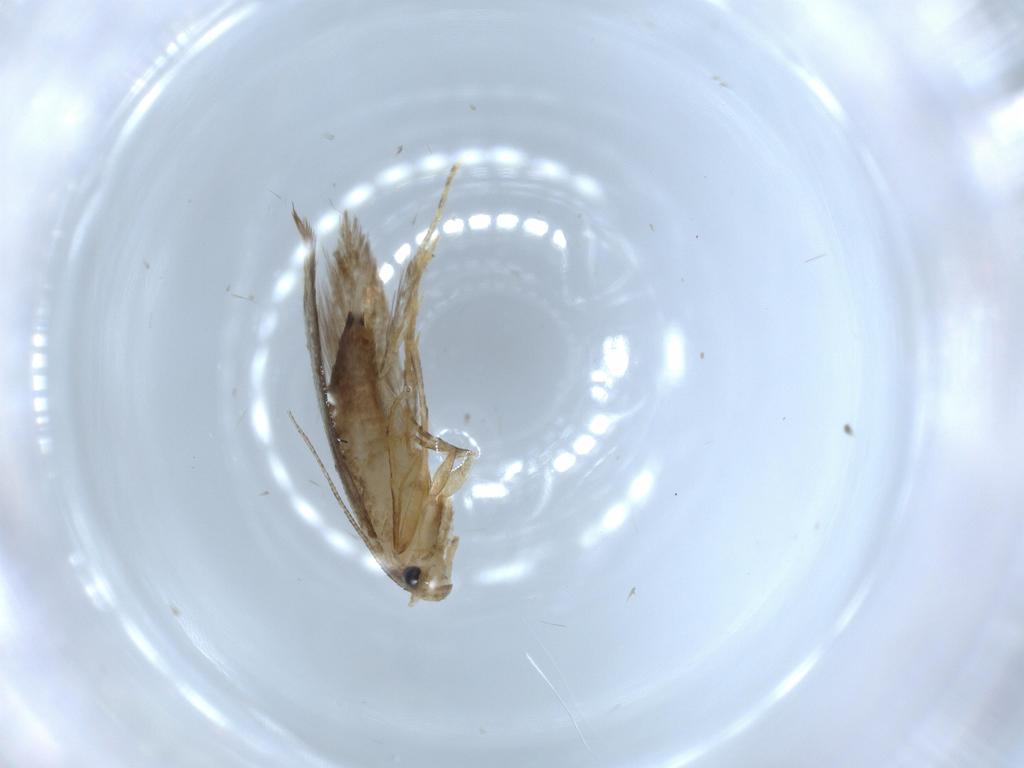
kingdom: Animalia
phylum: Arthropoda
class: Insecta
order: Lepidoptera
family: Tineidae
